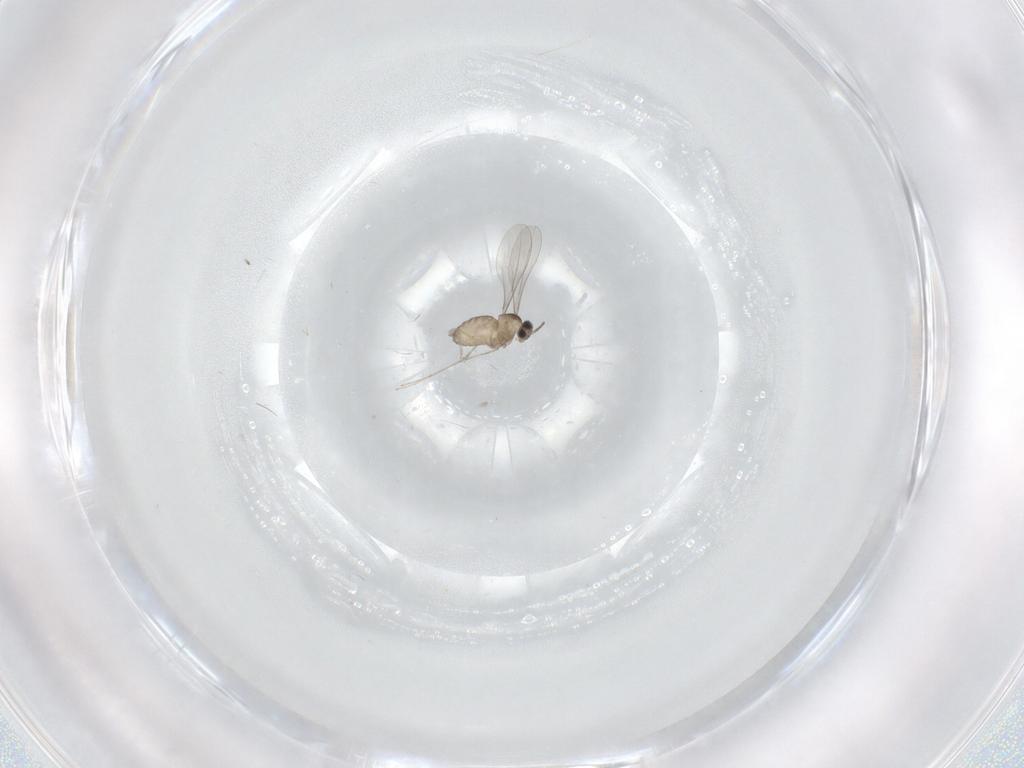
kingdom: Animalia
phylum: Arthropoda
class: Insecta
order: Diptera
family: Cecidomyiidae
